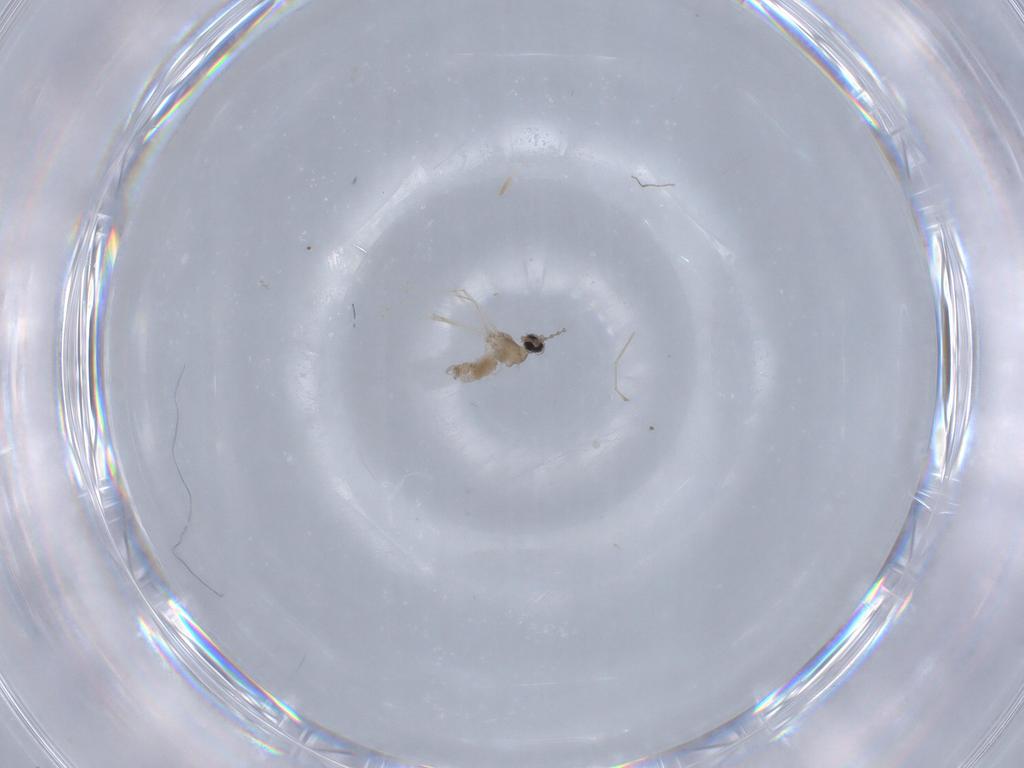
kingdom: Animalia
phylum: Arthropoda
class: Insecta
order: Diptera
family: Cecidomyiidae
